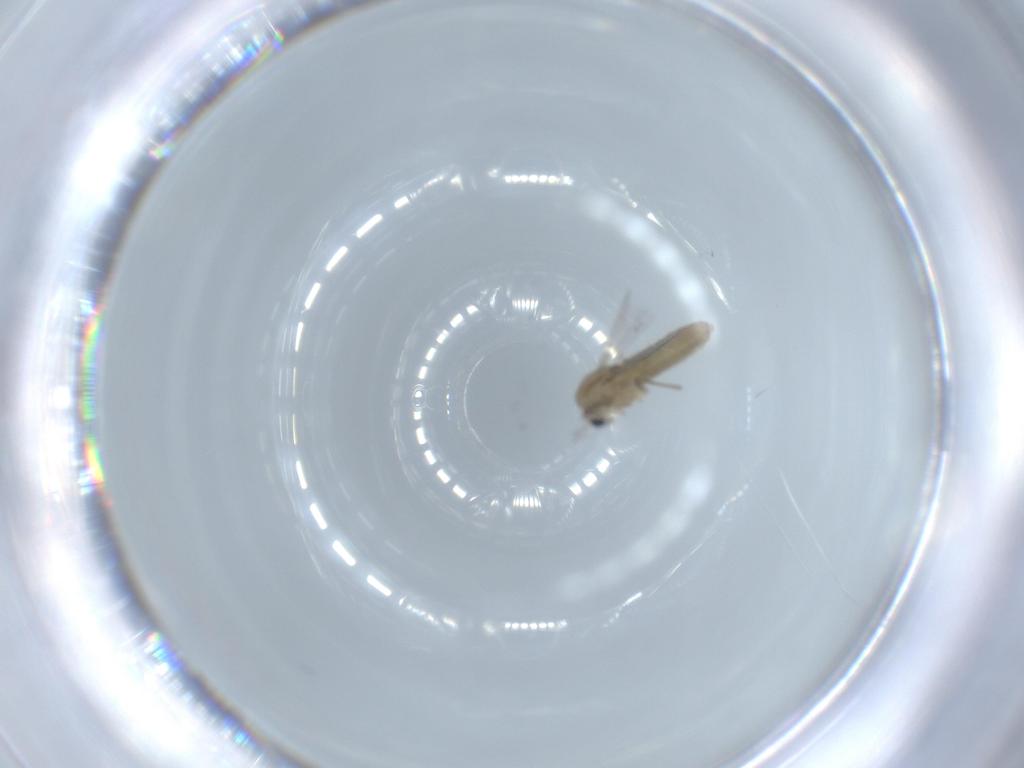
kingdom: Animalia
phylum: Arthropoda
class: Insecta
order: Diptera
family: Chironomidae
